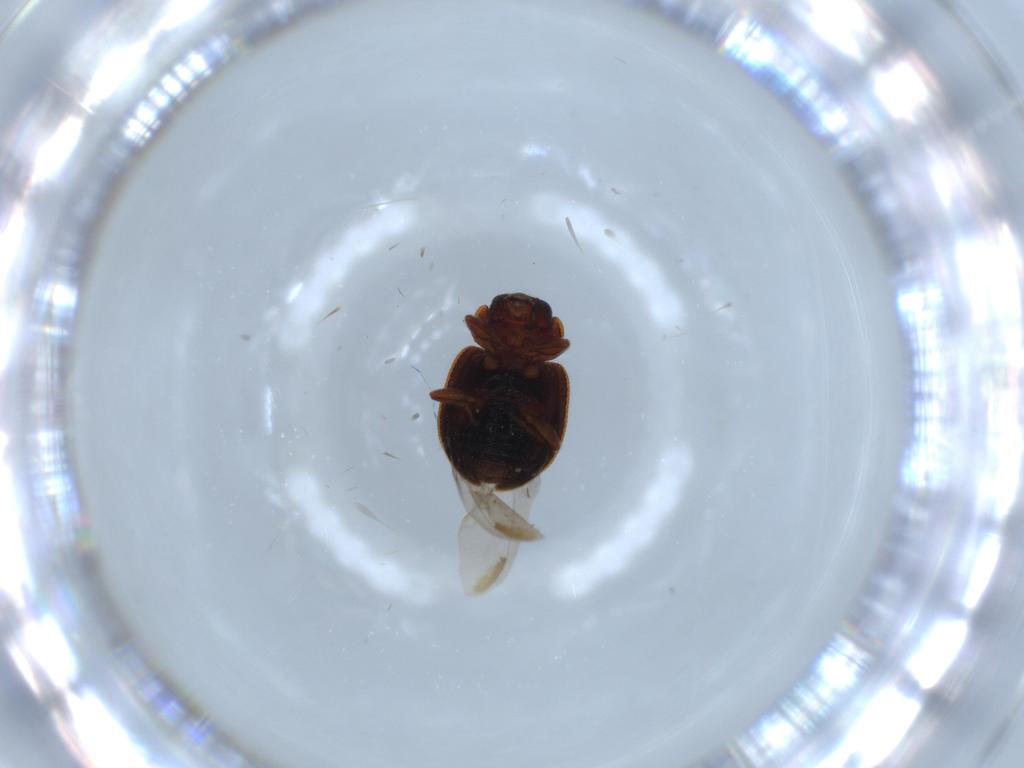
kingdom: Animalia
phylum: Arthropoda
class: Insecta
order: Coleoptera
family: Coccinellidae
